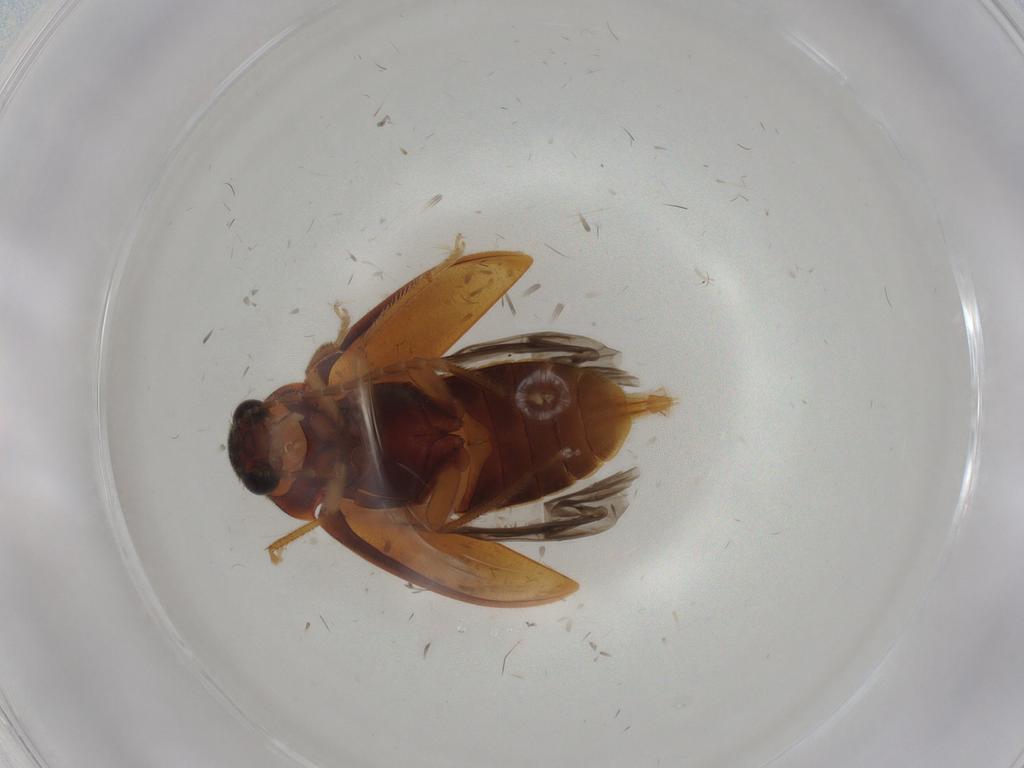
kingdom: Animalia
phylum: Arthropoda
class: Insecta
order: Coleoptera
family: Ptilodactylidae
